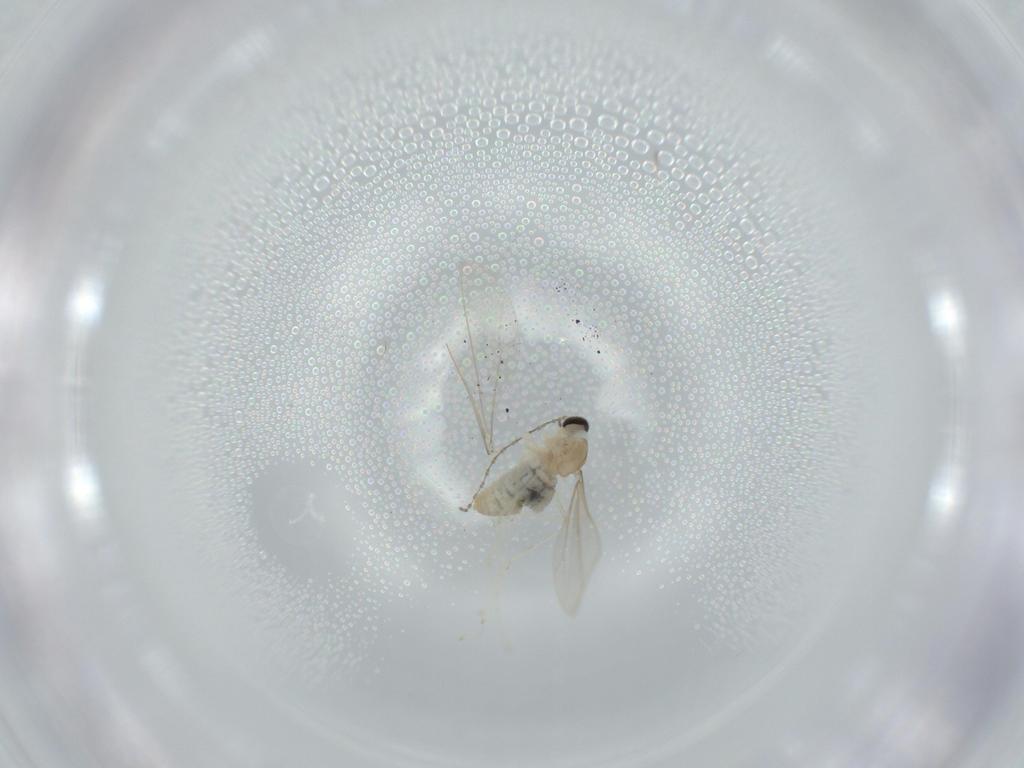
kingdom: Animalia
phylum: Arthropoda
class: Insecta
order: Diptera
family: Cecidomyiidae
